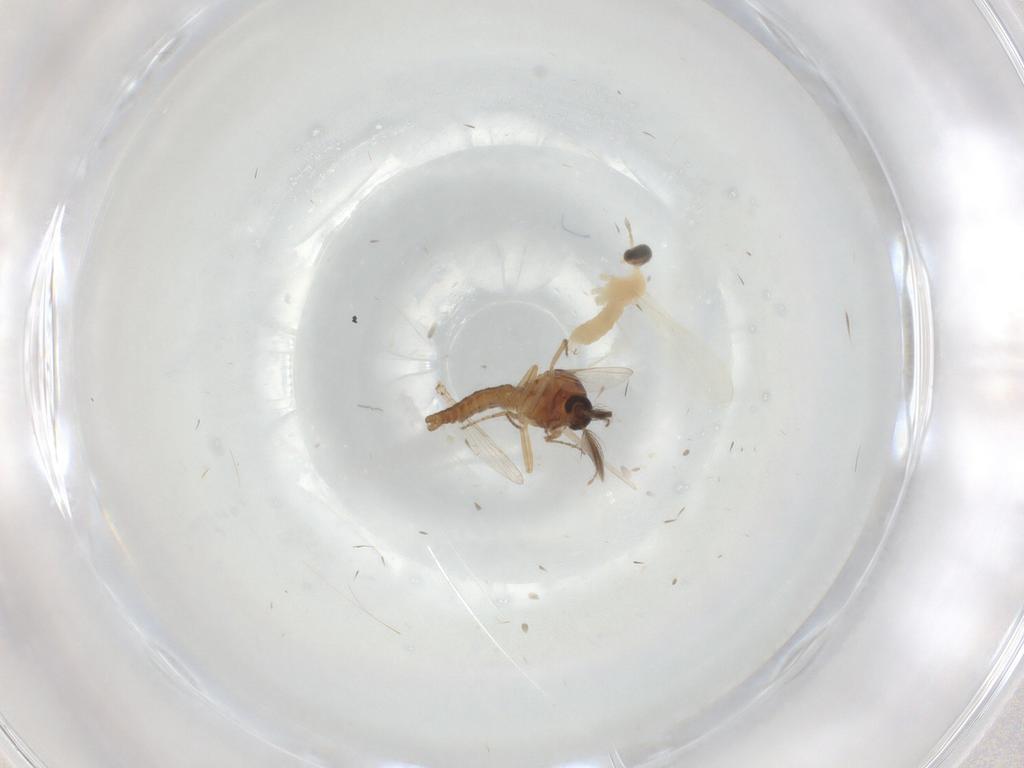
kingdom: Animalia
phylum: Arthropoda
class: Insecta
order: Diptera
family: Ceratopogonidae
